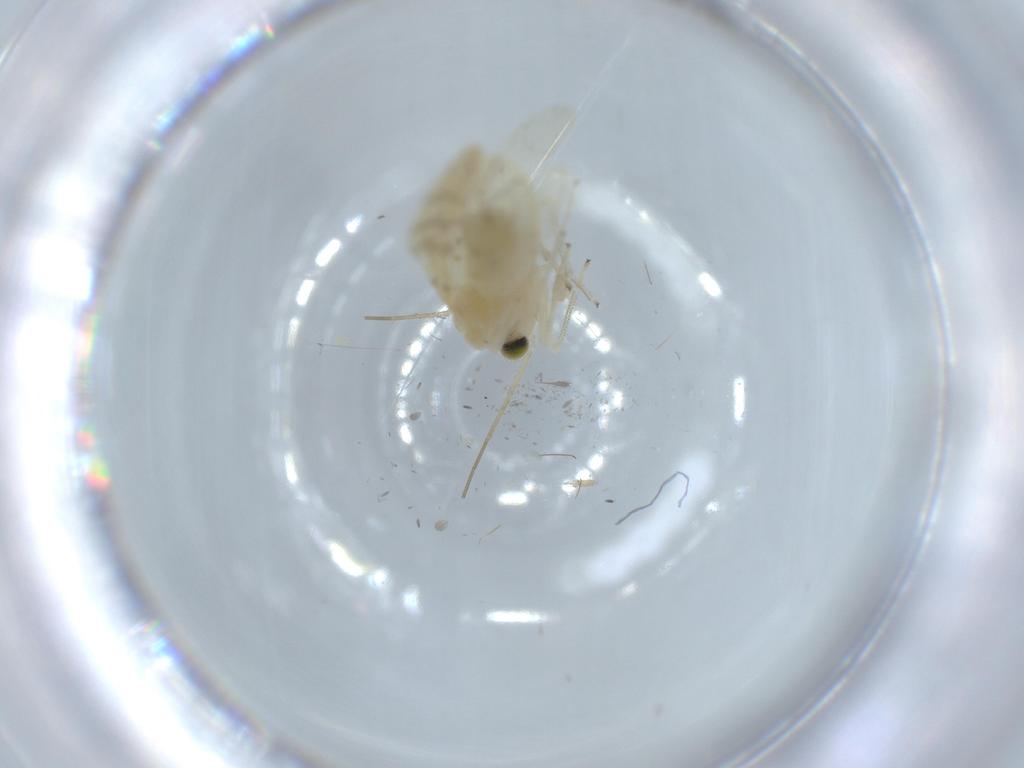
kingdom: Animalia
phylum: Arthropoda
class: Insecta
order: Psocodea
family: Caeciliusidae
